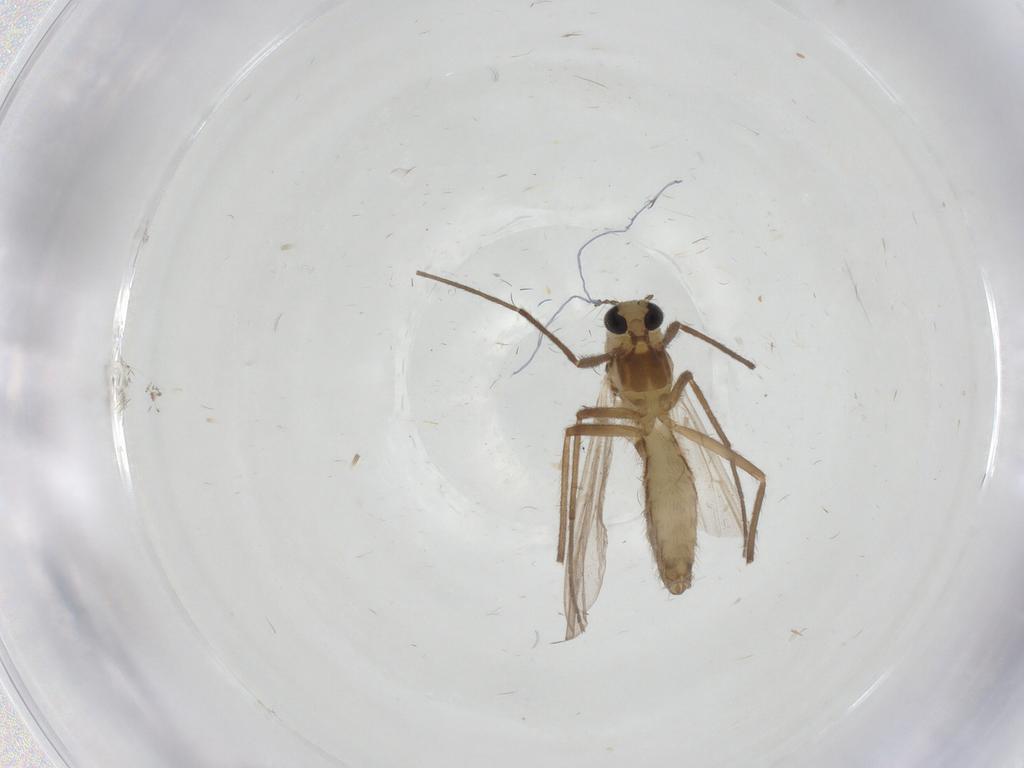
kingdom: Animalia
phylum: Arthropoda
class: Insecta
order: Diptera
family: Chironomidae
